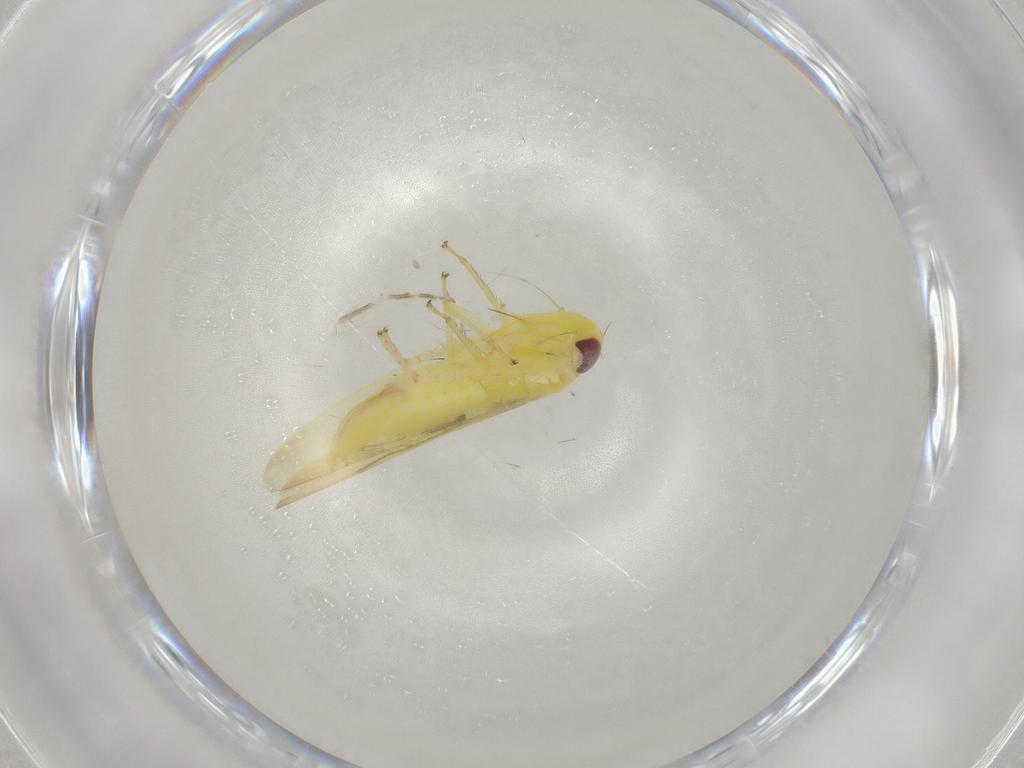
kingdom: Animalia
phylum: Arthropoda
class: Insecta
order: Hemiptera
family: Cicadellidae
